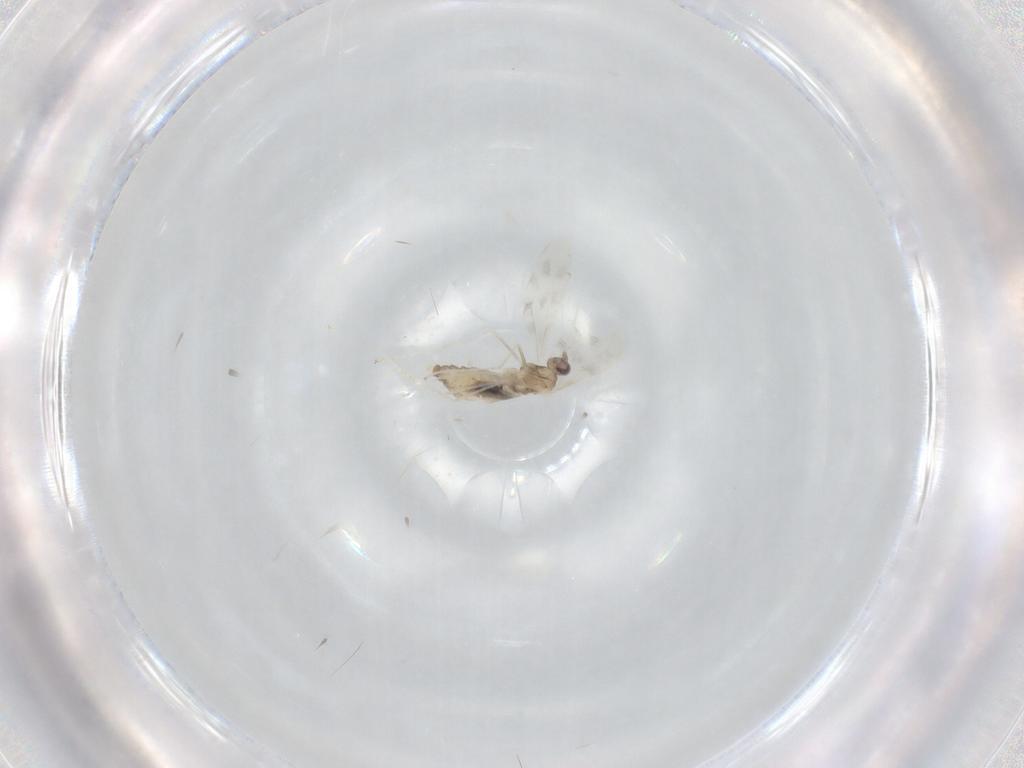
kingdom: Animalia
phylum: Arthropoda
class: Insecta
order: Diptera
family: Cecidomyiidae
